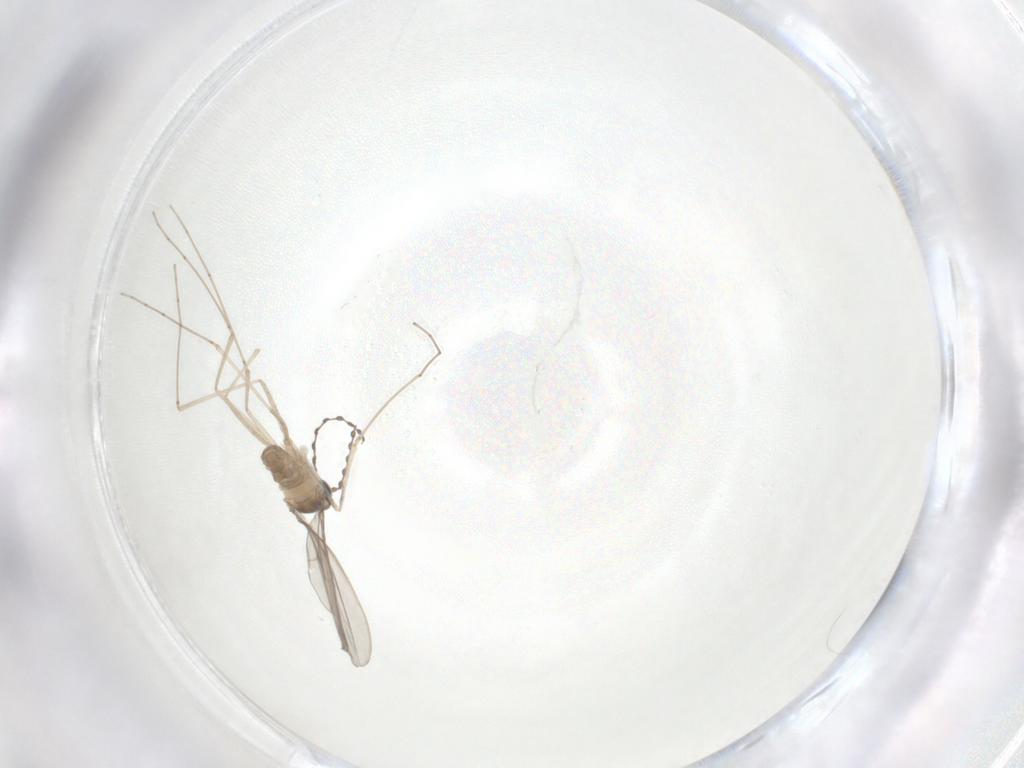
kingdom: Animalia
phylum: Arthropoda
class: Insecta
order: Diptera
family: Cecidomyiidae
